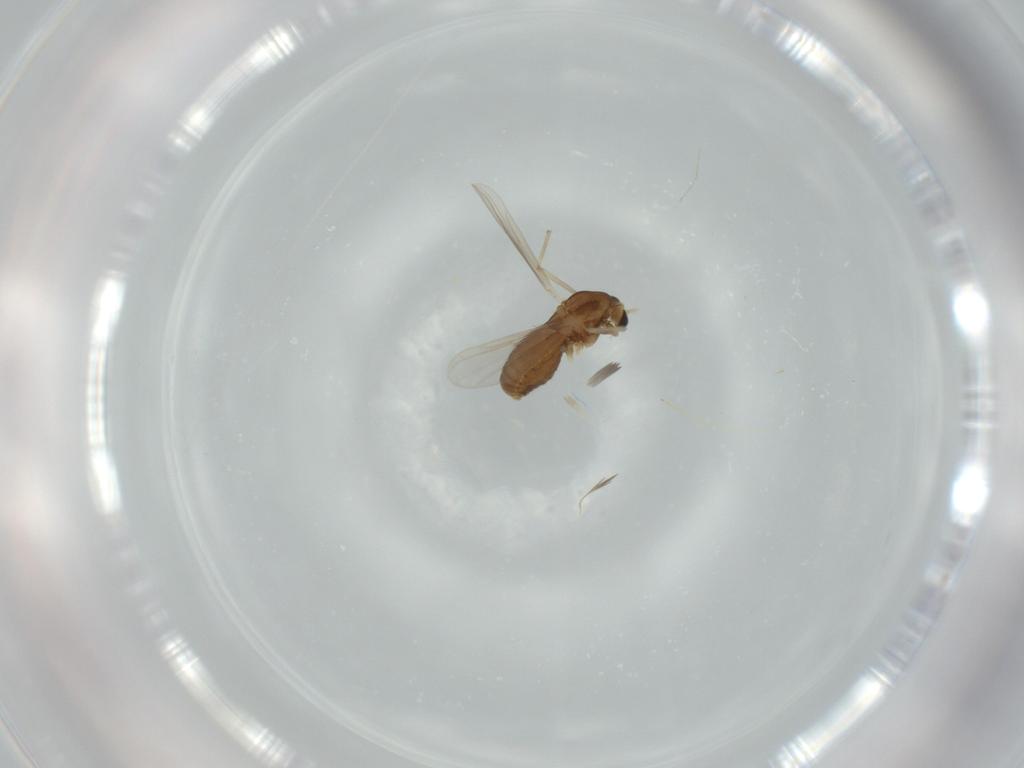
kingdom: Animalia
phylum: Arthropoda
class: Insecta
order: Diptera
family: Chironomidae
